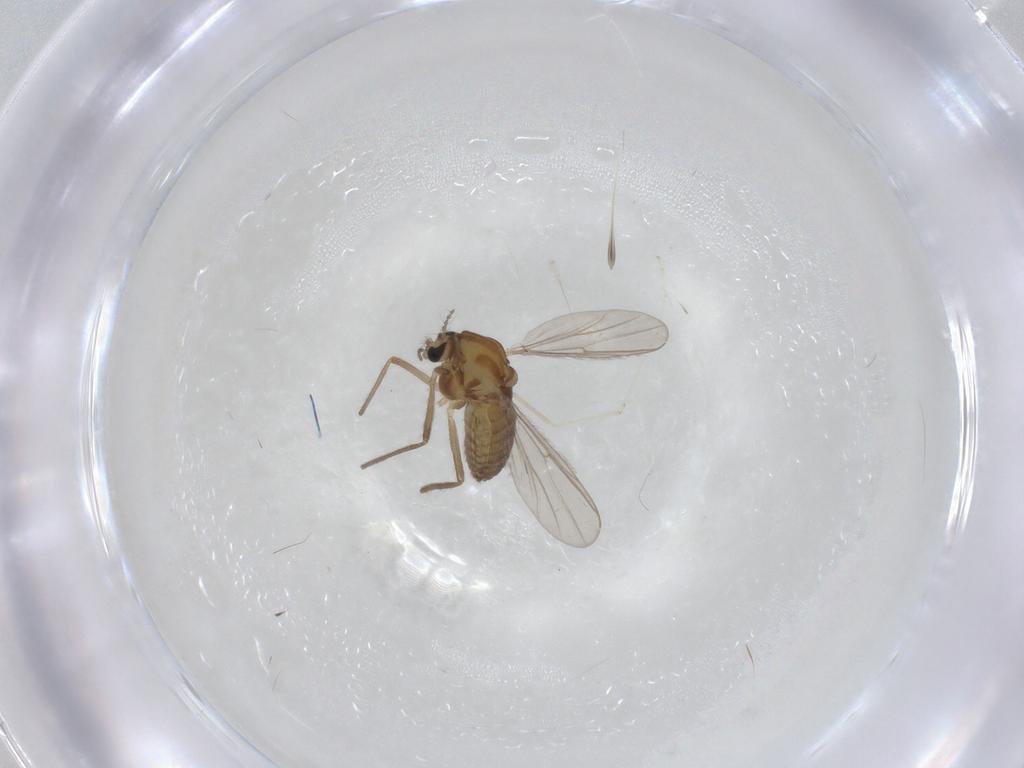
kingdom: Animalia
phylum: Arthropoda
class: Insecta
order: Diptera
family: Chironomidae
